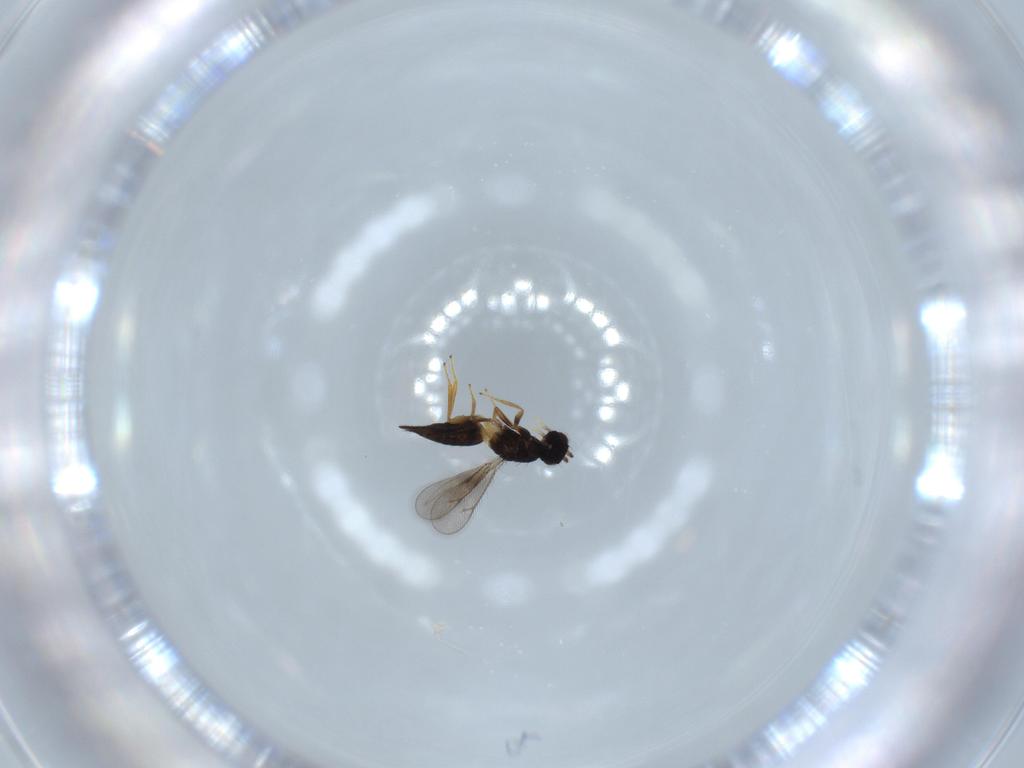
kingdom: Animalia
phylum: Arthropoda
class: Insecta
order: Hymenoptera
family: Eulophidae
